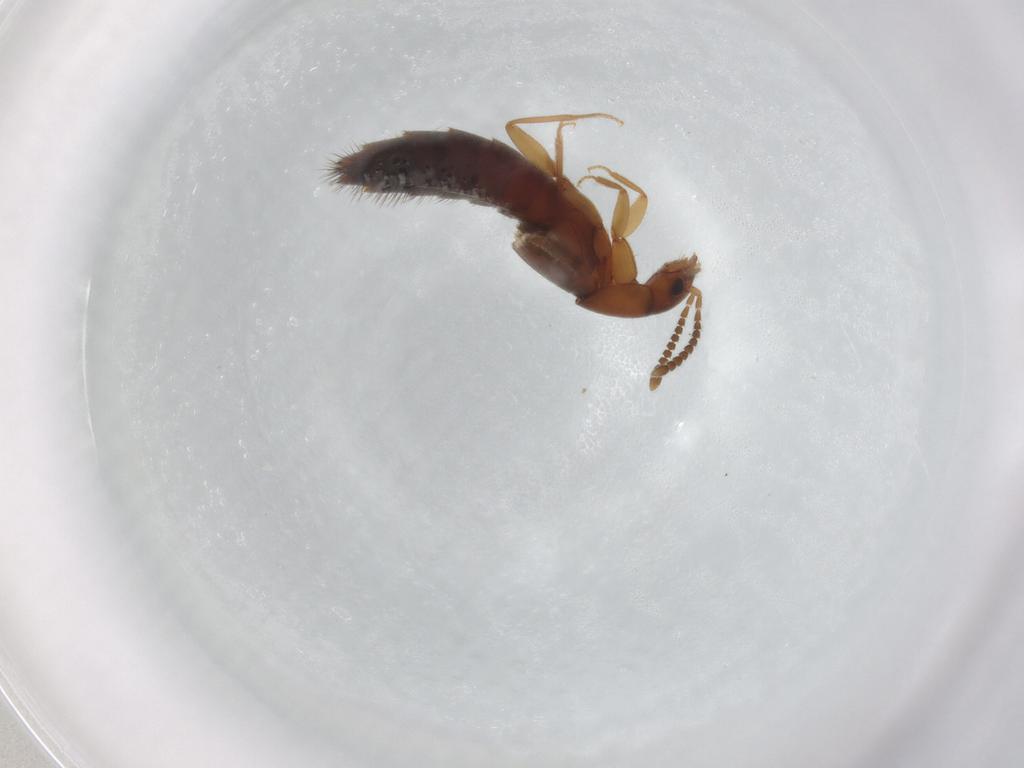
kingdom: Animalia
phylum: Arthropoda
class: Insecta
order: Coleoptera
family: Staphylinidae
